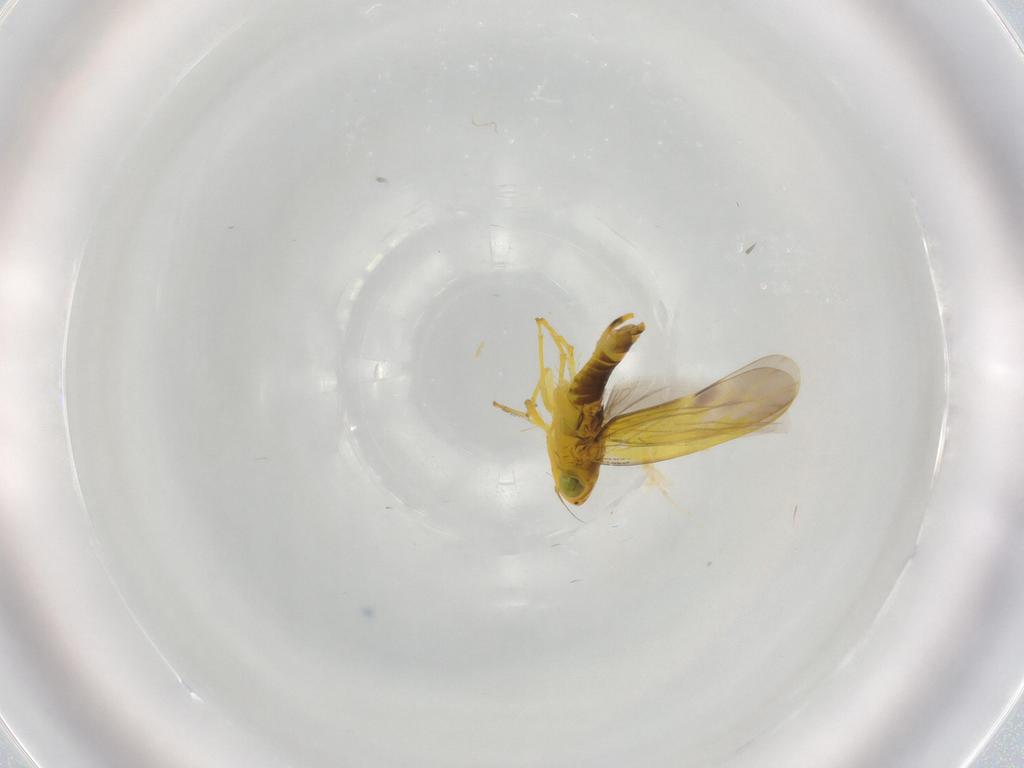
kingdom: Animalia
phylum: Arthropoda
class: Insecta
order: Hemiptera
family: Cicadellidae
